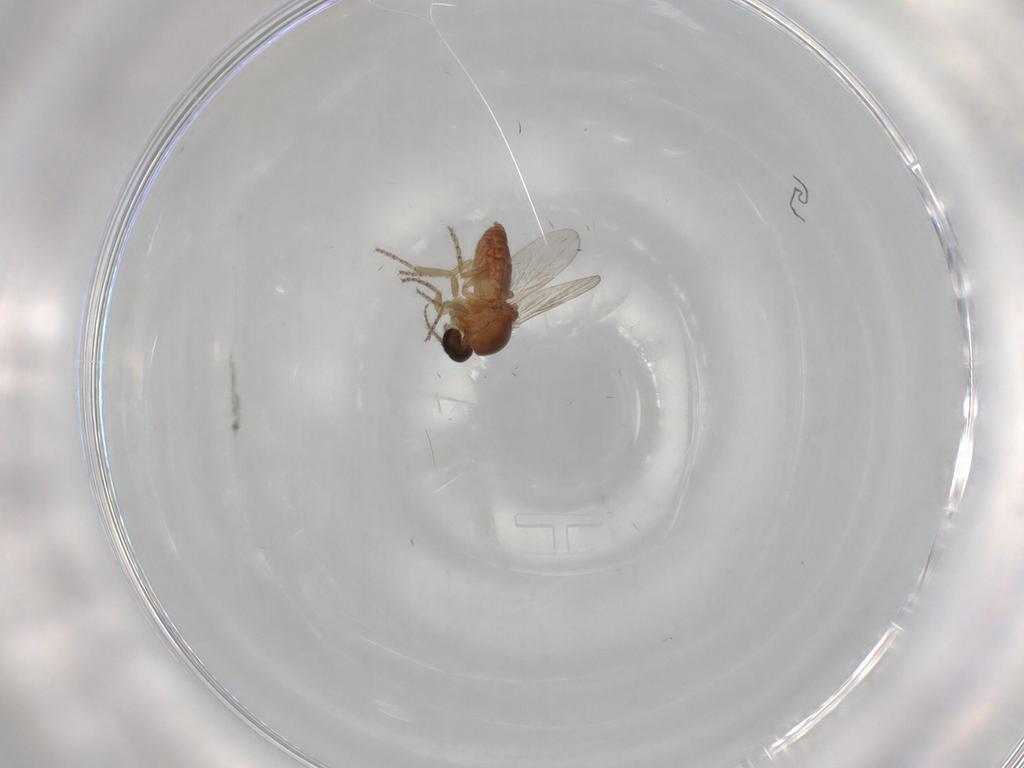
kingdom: Animalia
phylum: Arthropoda
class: Insecta
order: Diptera
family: Ceratopogonidae
